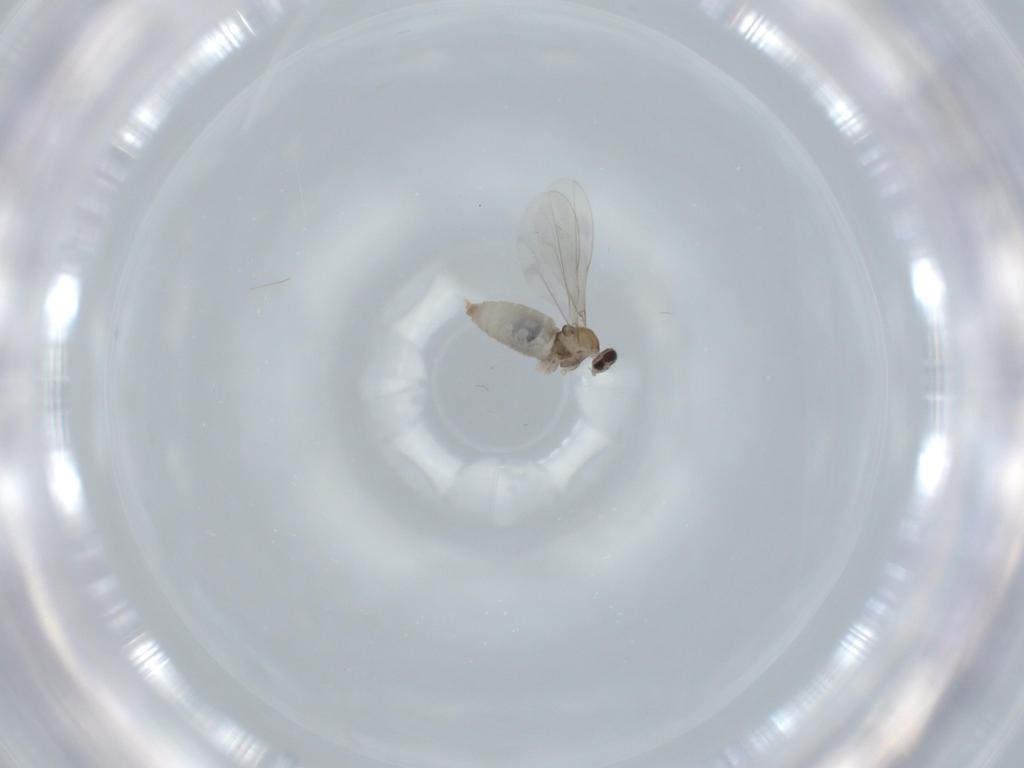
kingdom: Animalia
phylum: Arthropoda
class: Insecta
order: Diptera
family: Cecidomyiidae
